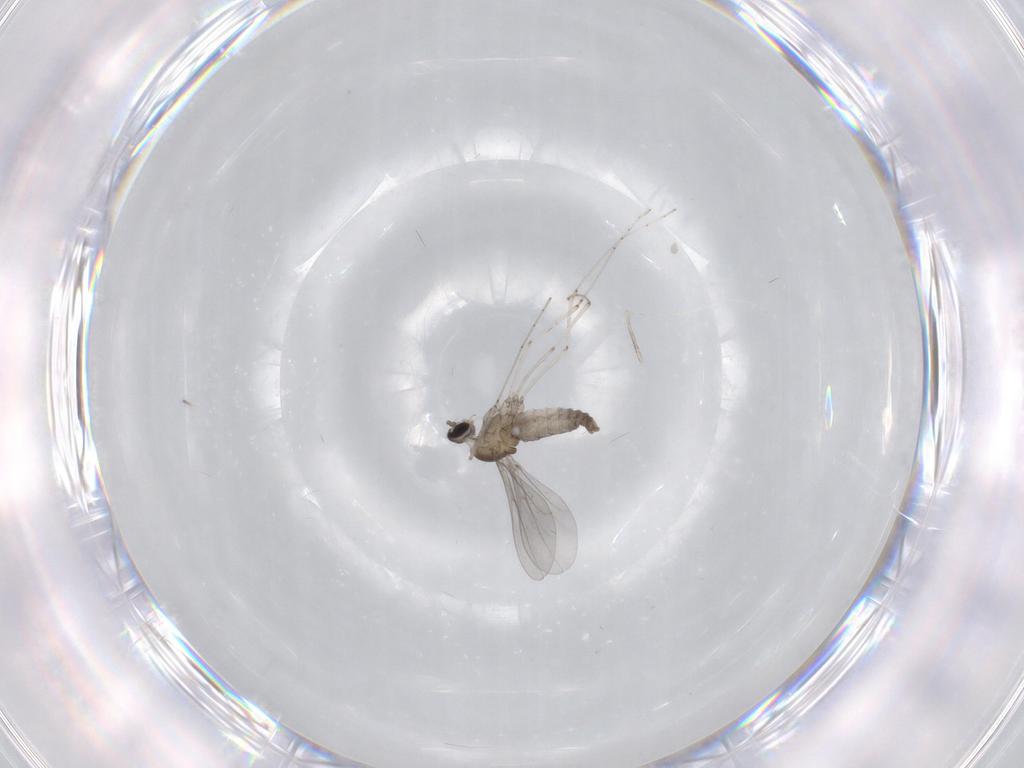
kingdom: Animalia
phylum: Arthropoda
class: Insecta
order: Diptera
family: Cecidomyiidae
